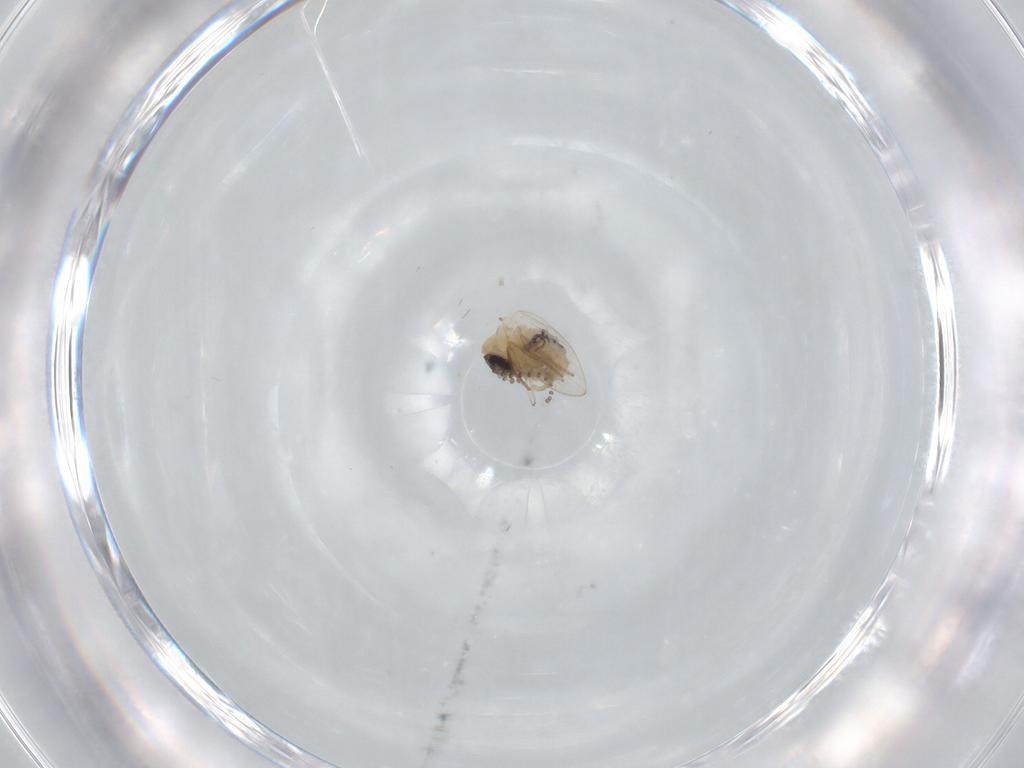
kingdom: Animalia
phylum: Arthropoda
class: Insecta
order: Diptera
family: Psychodidae
